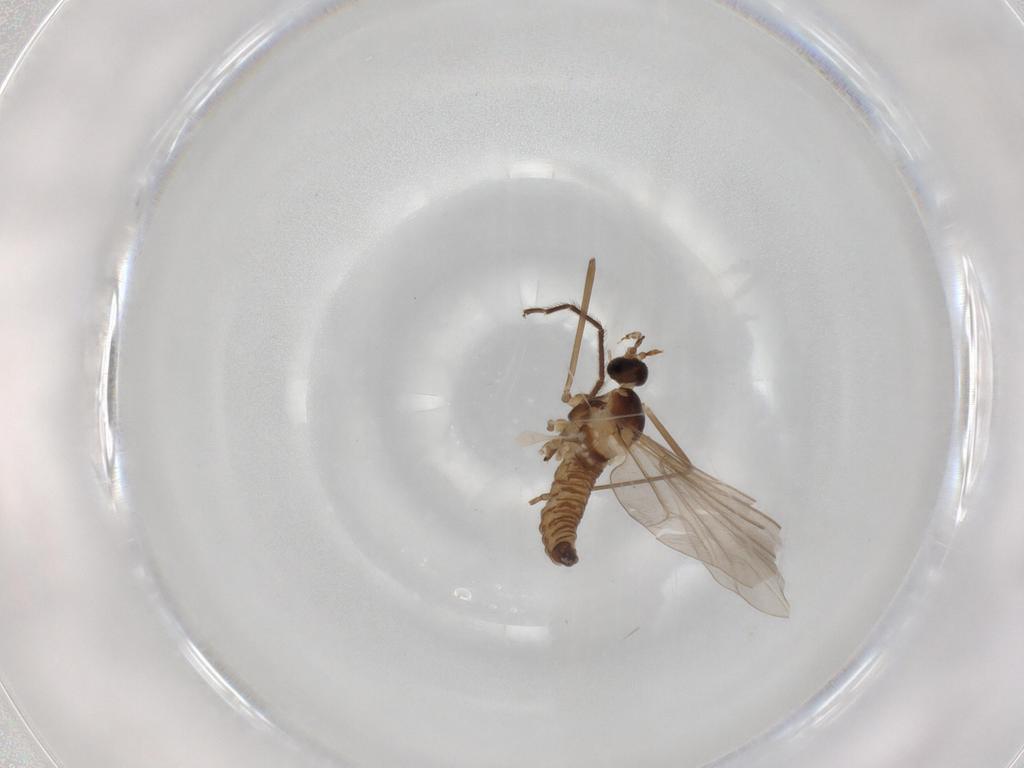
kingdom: Animalia
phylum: Arthropoda
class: Insecta
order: Diptera
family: Cecidomyiidae
